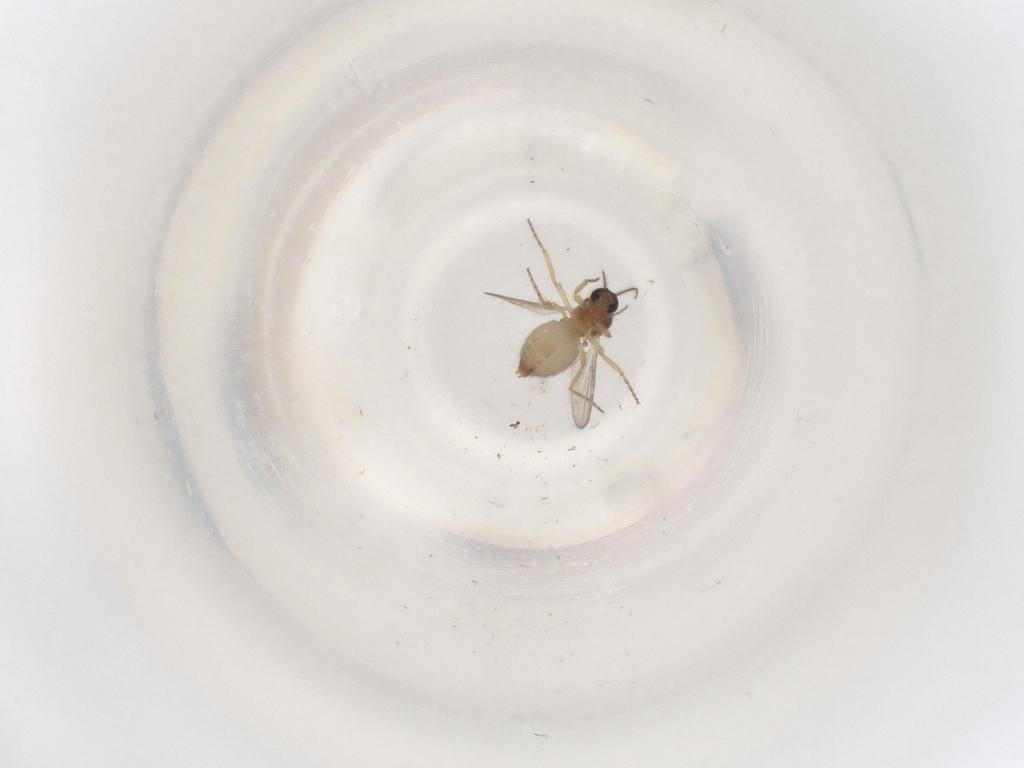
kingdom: Animalia
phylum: Arthropoda
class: Insecta
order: Diptera
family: Ceratopogonidae
